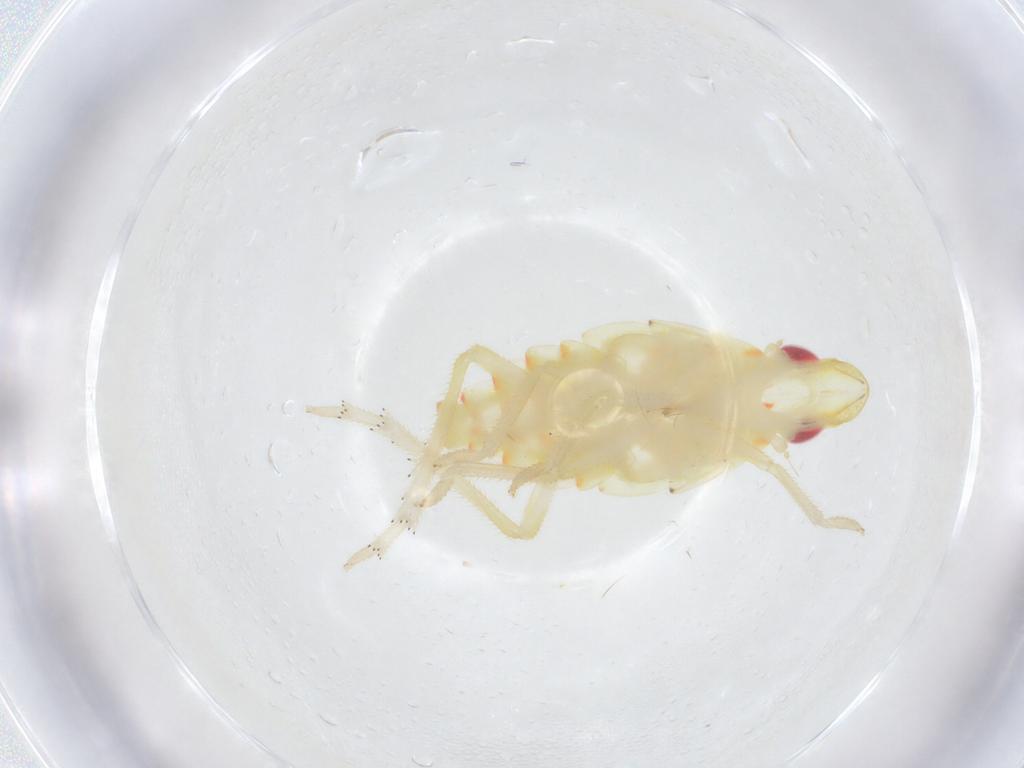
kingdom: Animalia
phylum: Arthropoda
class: Insecta
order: Hemiptera
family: Tropiduchidae
